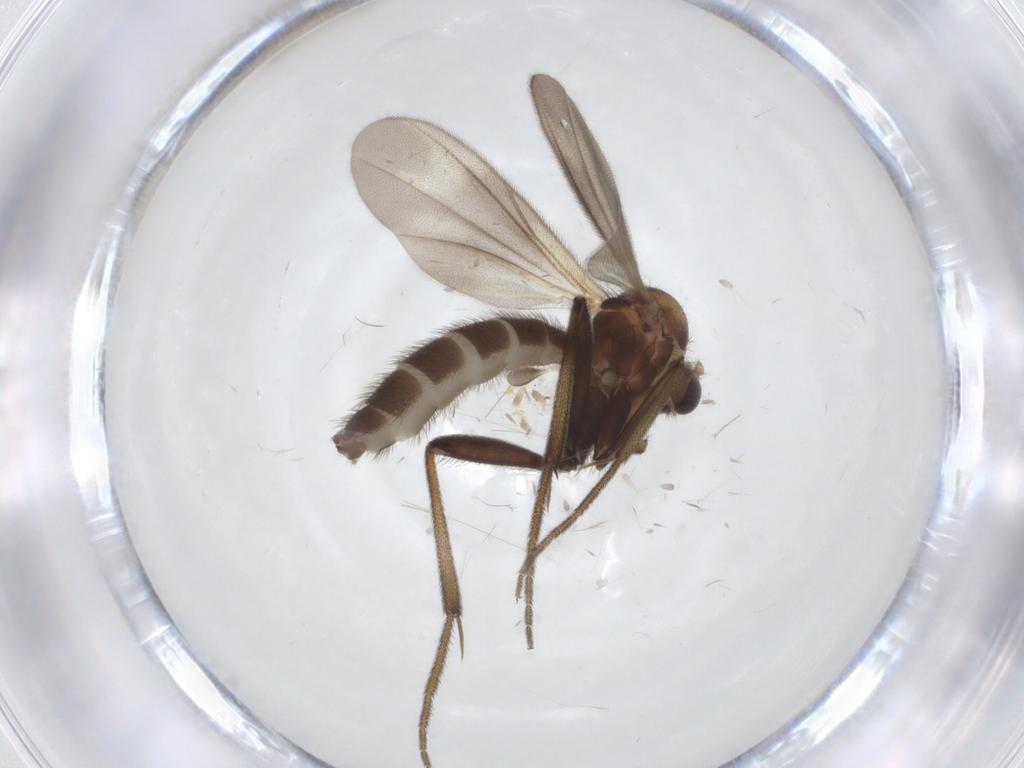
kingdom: Animalia
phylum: Arthropoda
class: Insecta
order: Diptera
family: Mycetophilidae
